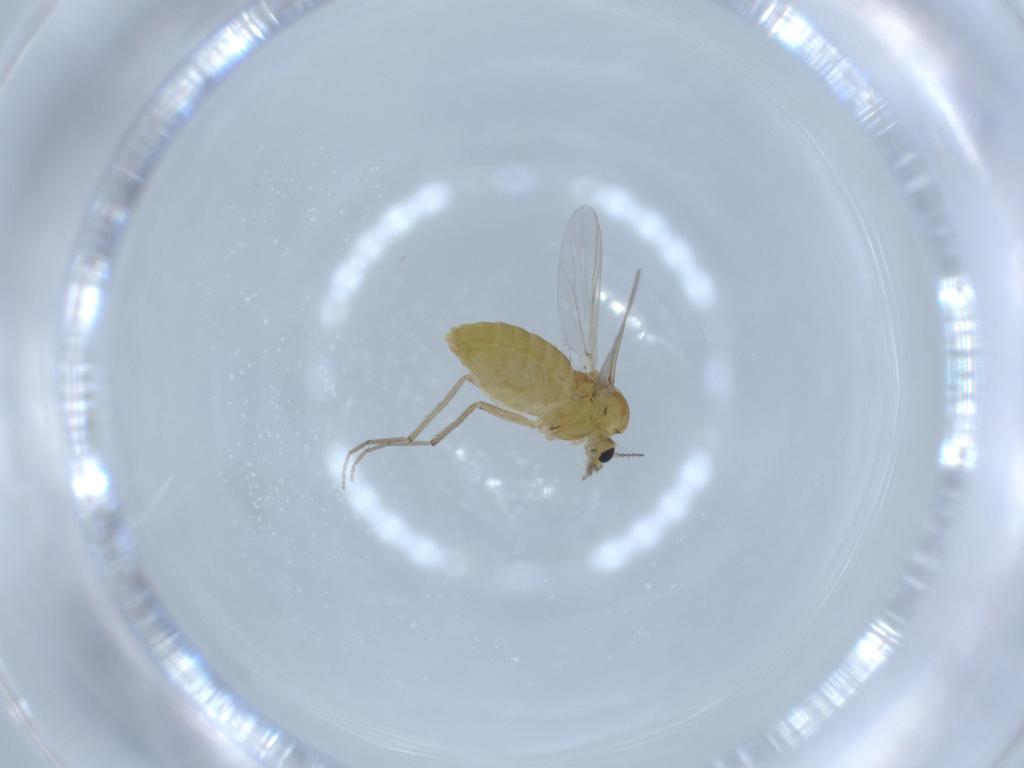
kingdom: Animalia
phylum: Arthropoda
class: Insecta
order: Diptera
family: Chironomidae
